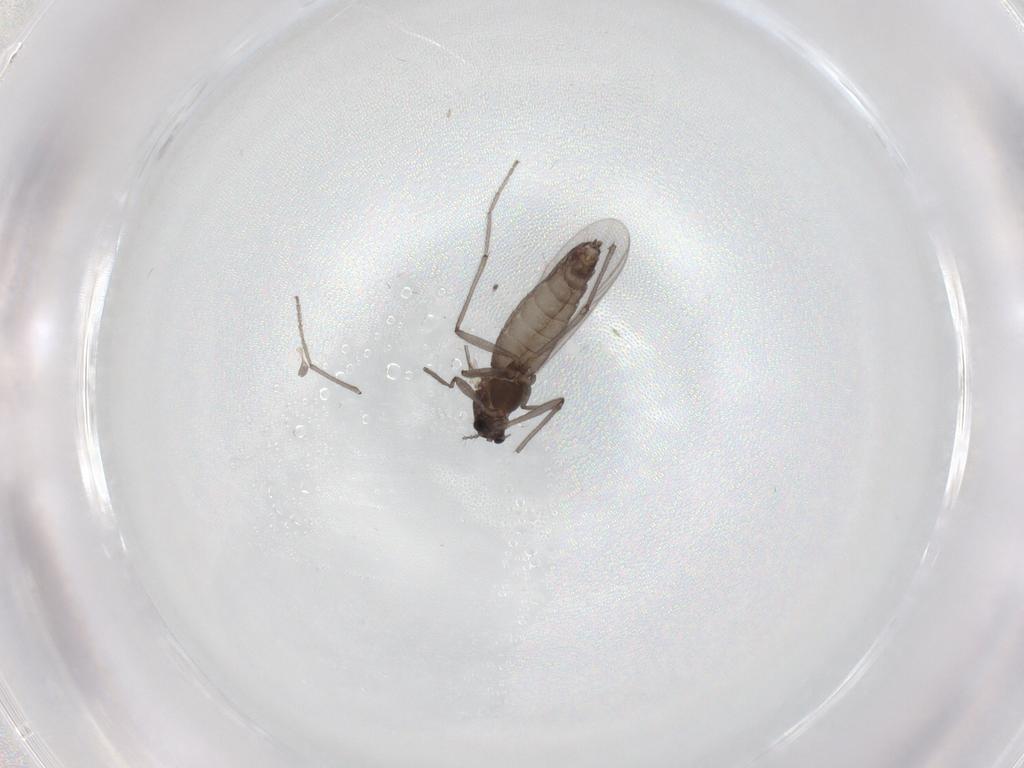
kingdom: Animalia
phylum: Arthropoda
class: Insecta
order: Diptera
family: Chironomidae
